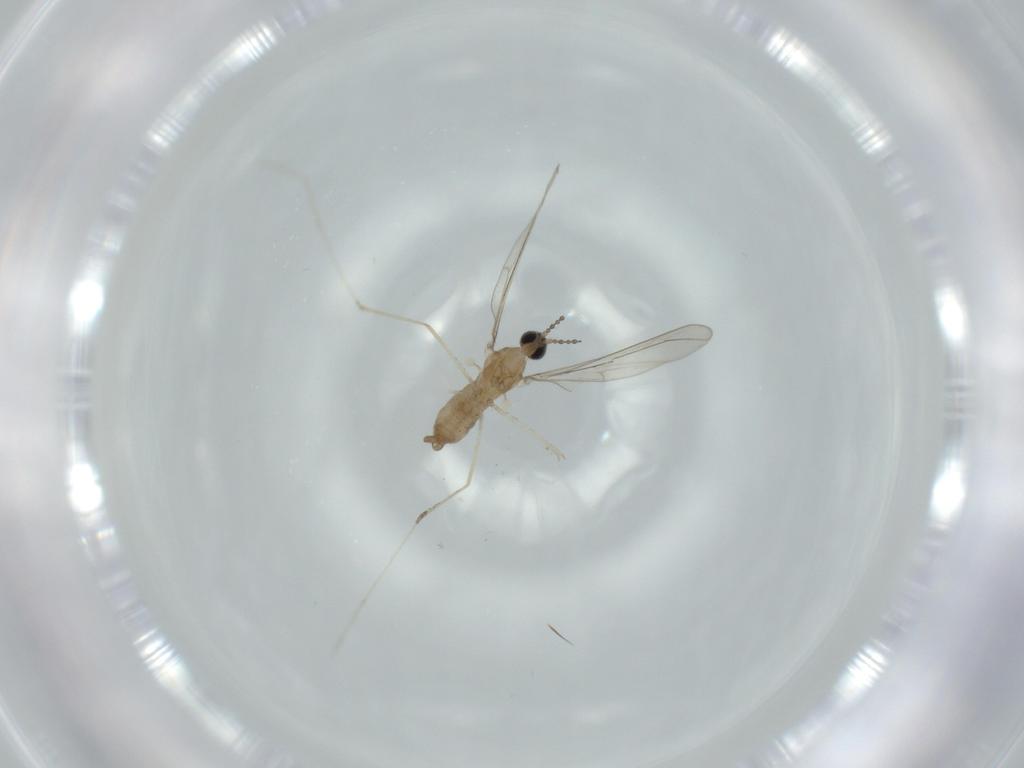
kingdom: Animalia
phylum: Arthropoda
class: Insecta
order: Diptera
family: Cecidomyiidae
